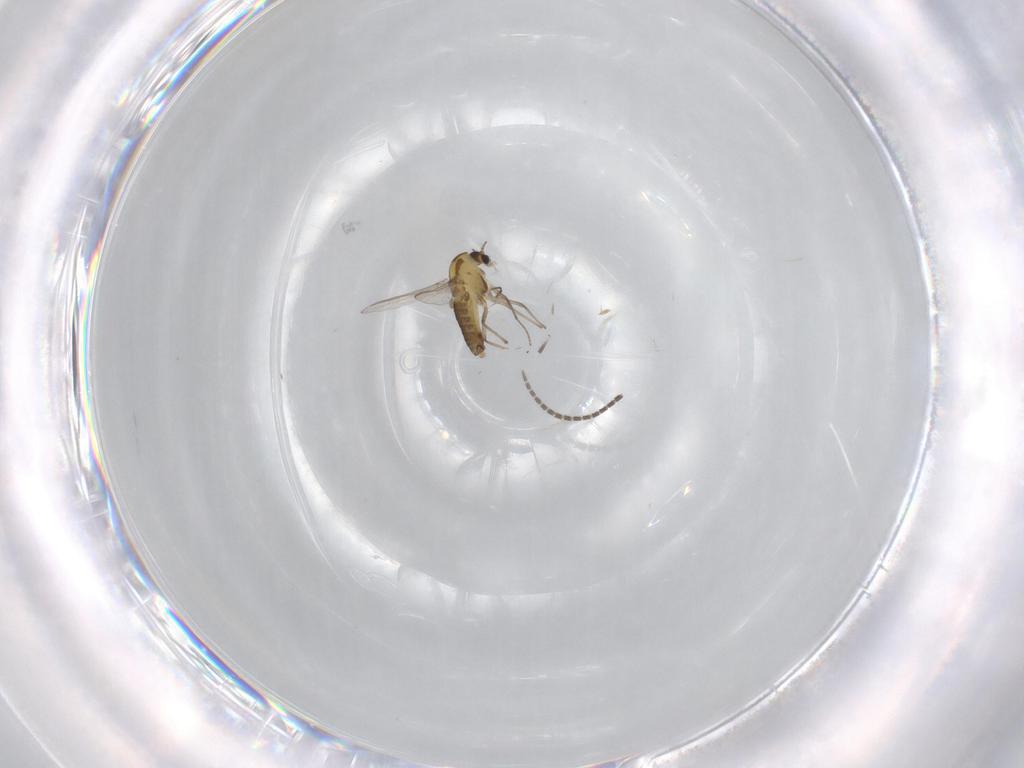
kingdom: Animalia
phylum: Arthropoda
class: Insecta
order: Diptera
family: Chironomidae
